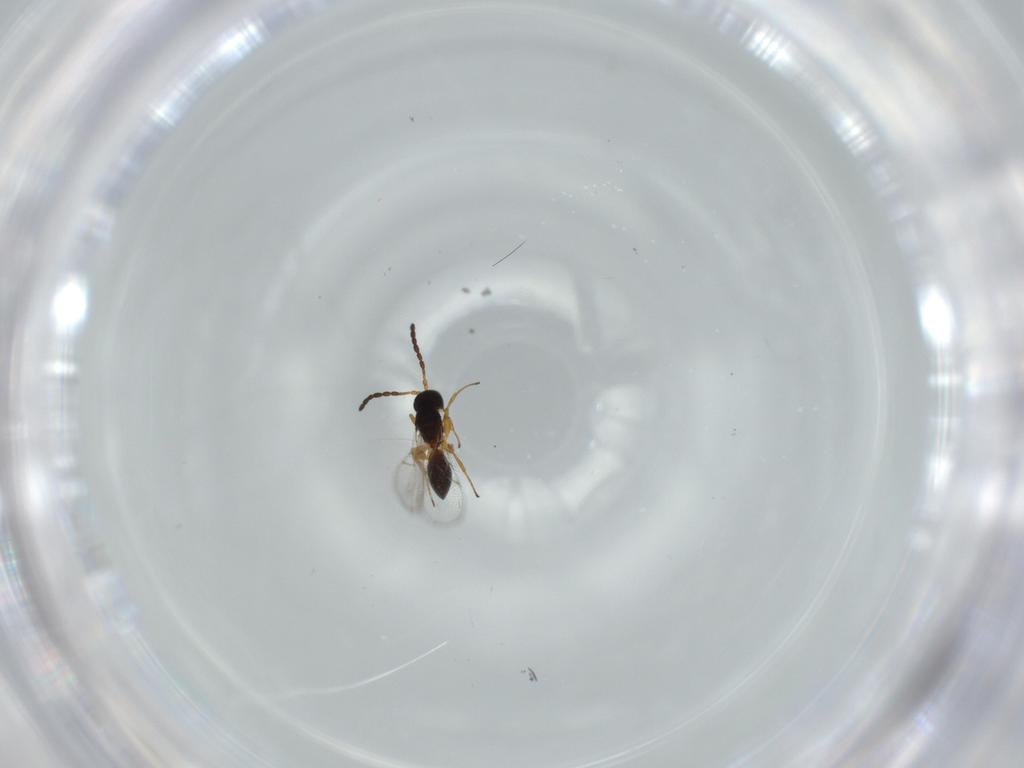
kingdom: Animalia
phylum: Arthropoda
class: Insecta
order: Hymenoptera
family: Figitidae
